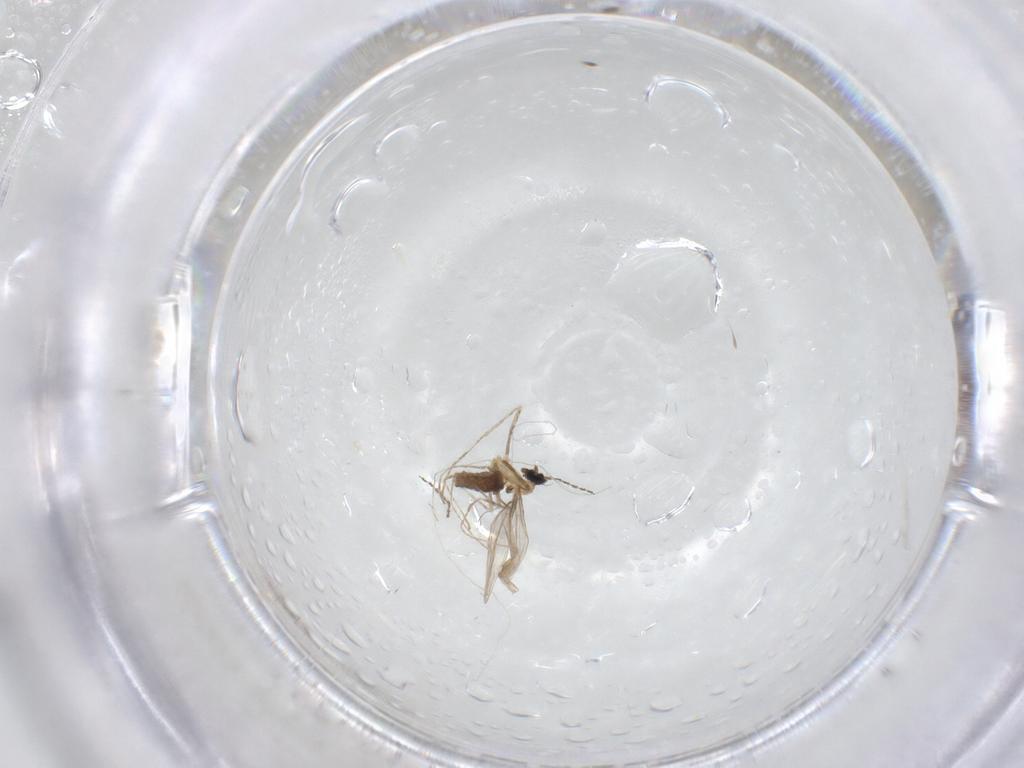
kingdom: Animalia
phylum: Arthropoda
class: Insecta
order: Diptera
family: Cecidomyiidae
